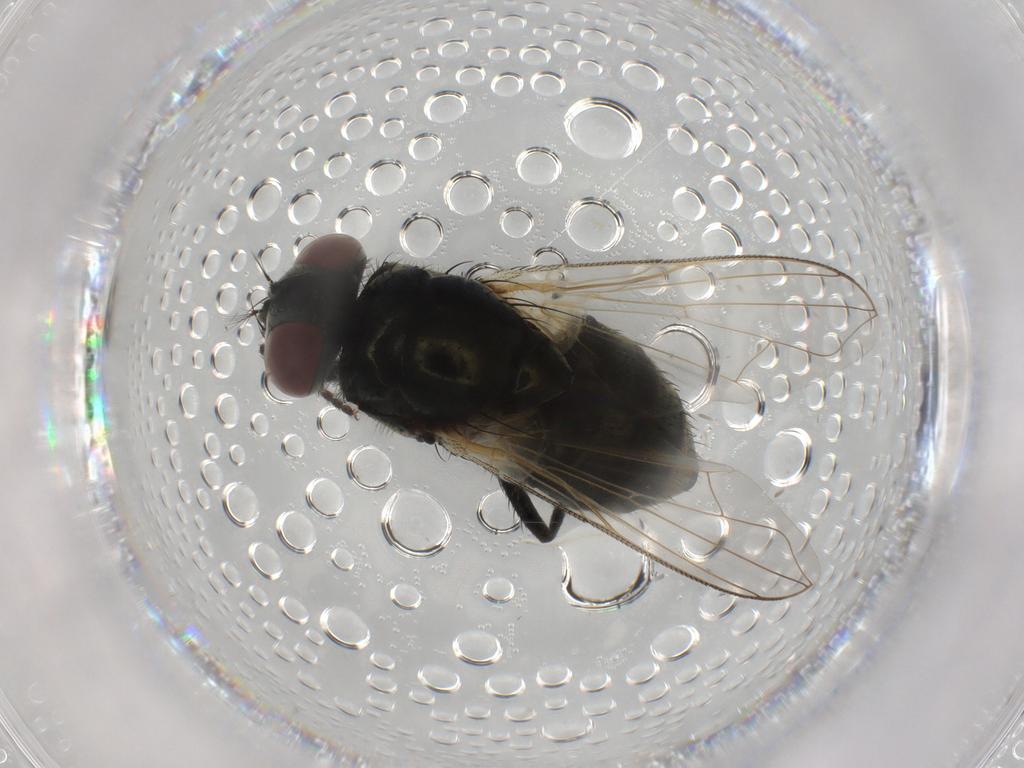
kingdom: Animalia
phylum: Arthropoda
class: Insecta
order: Diptera
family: Muscidae
